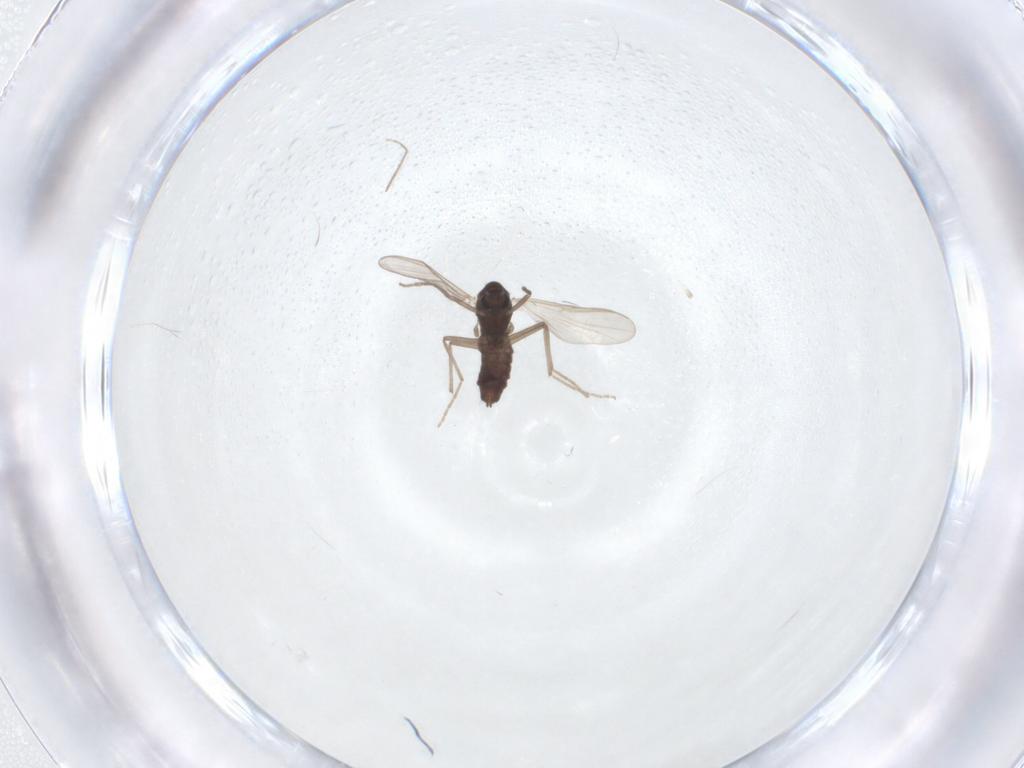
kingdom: Animalia
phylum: Arthropoda
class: Insecta
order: Diptera
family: Chironomidae
